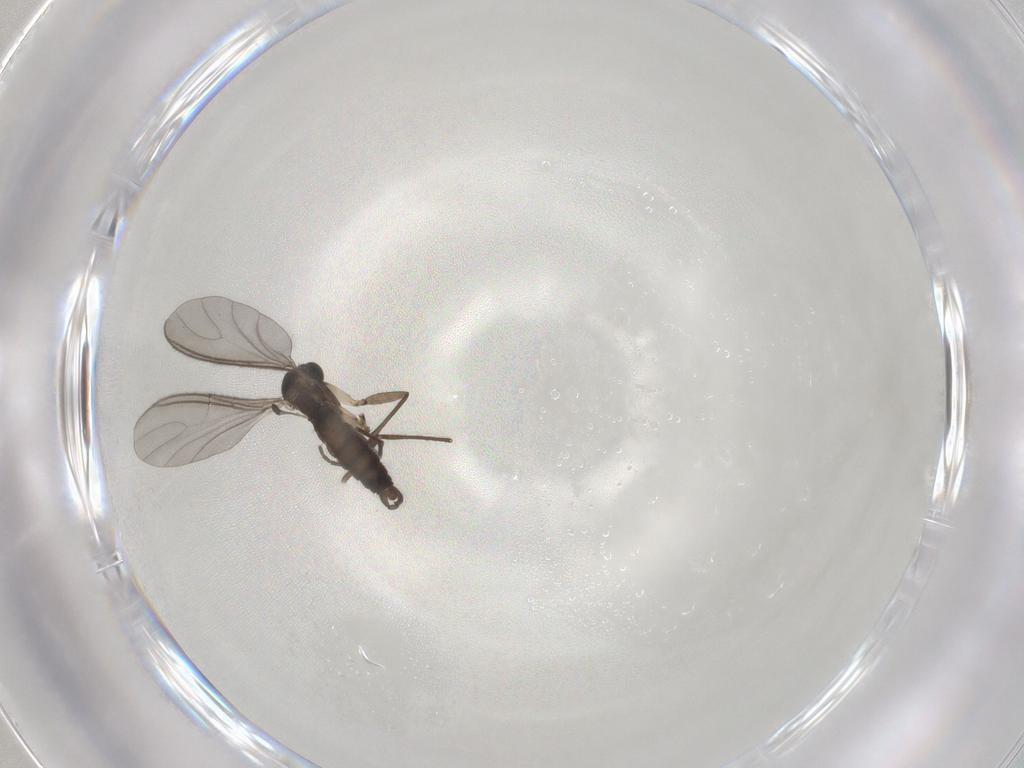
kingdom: Animalia
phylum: Arthropoda
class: Insecta
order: Diptera
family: Sciaridae
